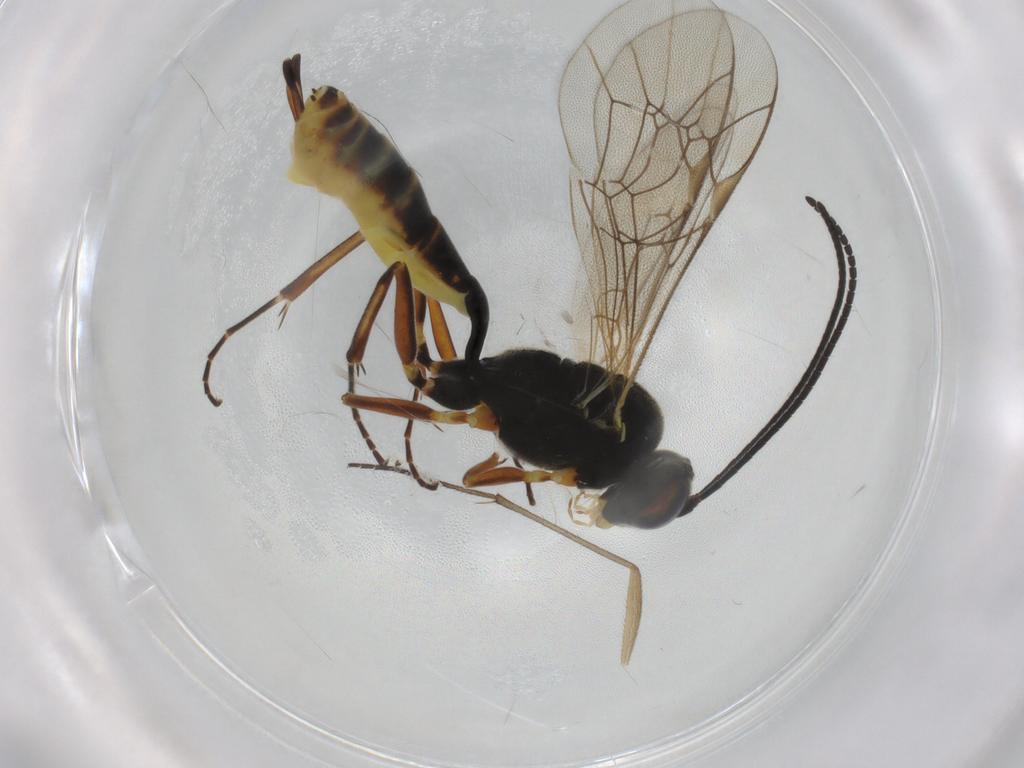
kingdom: Animalia
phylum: Arthropoda
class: Insecta
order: Hymenoptera
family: Ichneumonidae
